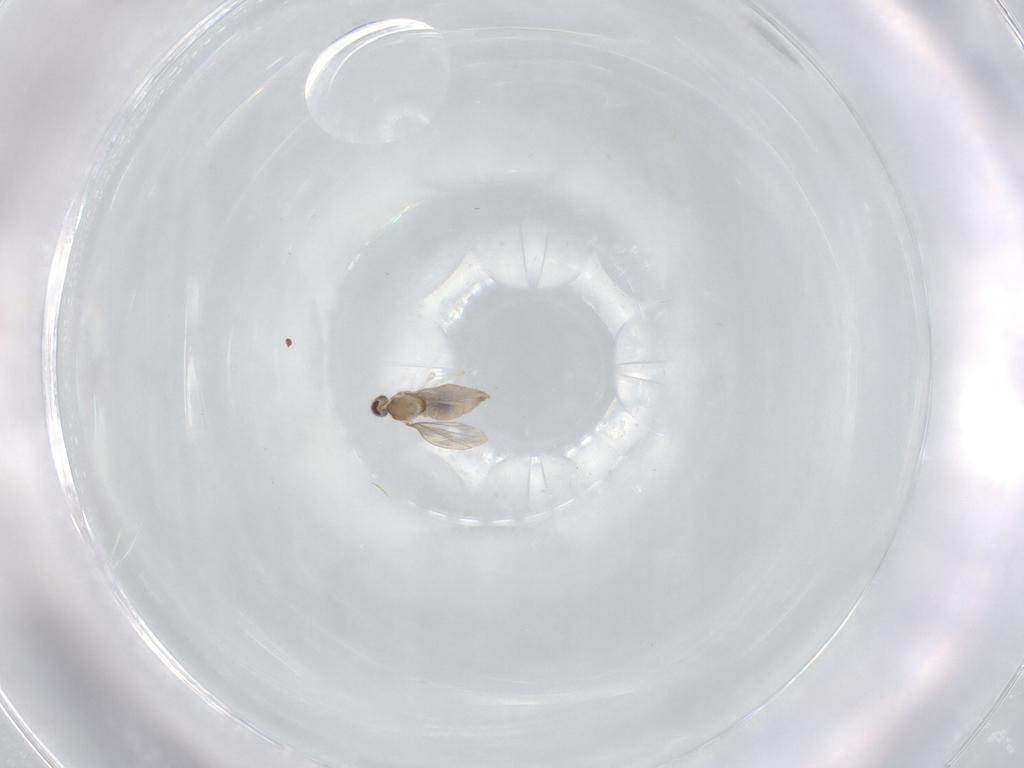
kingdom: Animalia
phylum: Arthropoda
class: Insecta
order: Diptera
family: Cecidomyiidae
